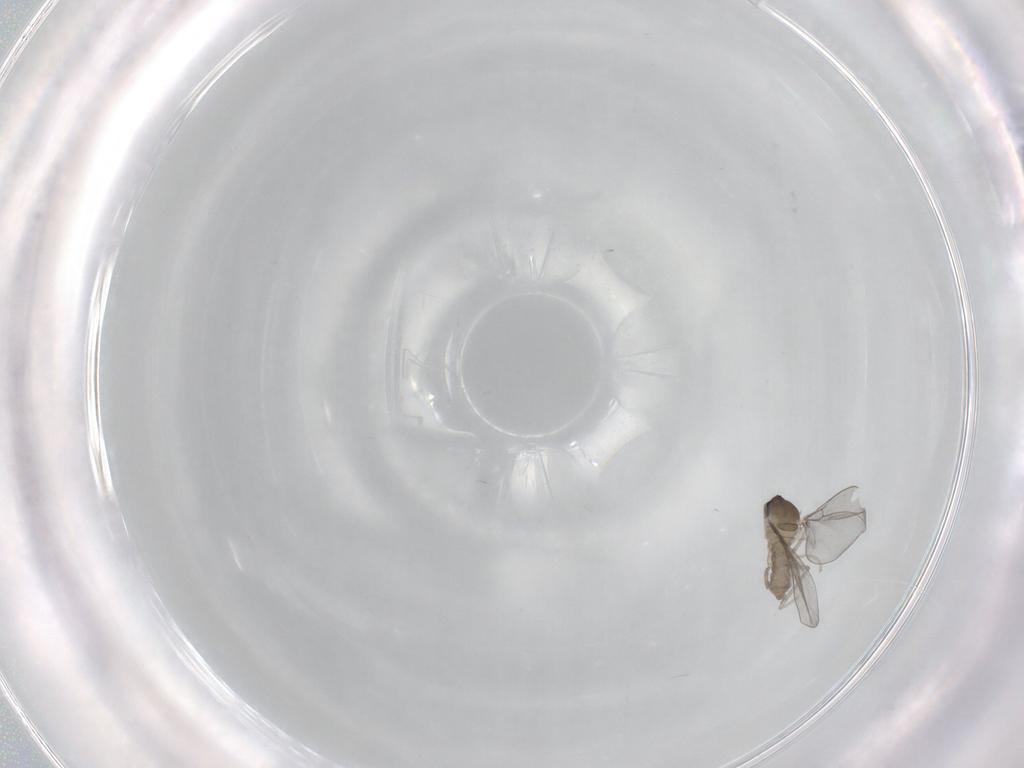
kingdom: Animalia
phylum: Arthropoda
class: Insecta
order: Diptera
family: Cecidomyiidae
